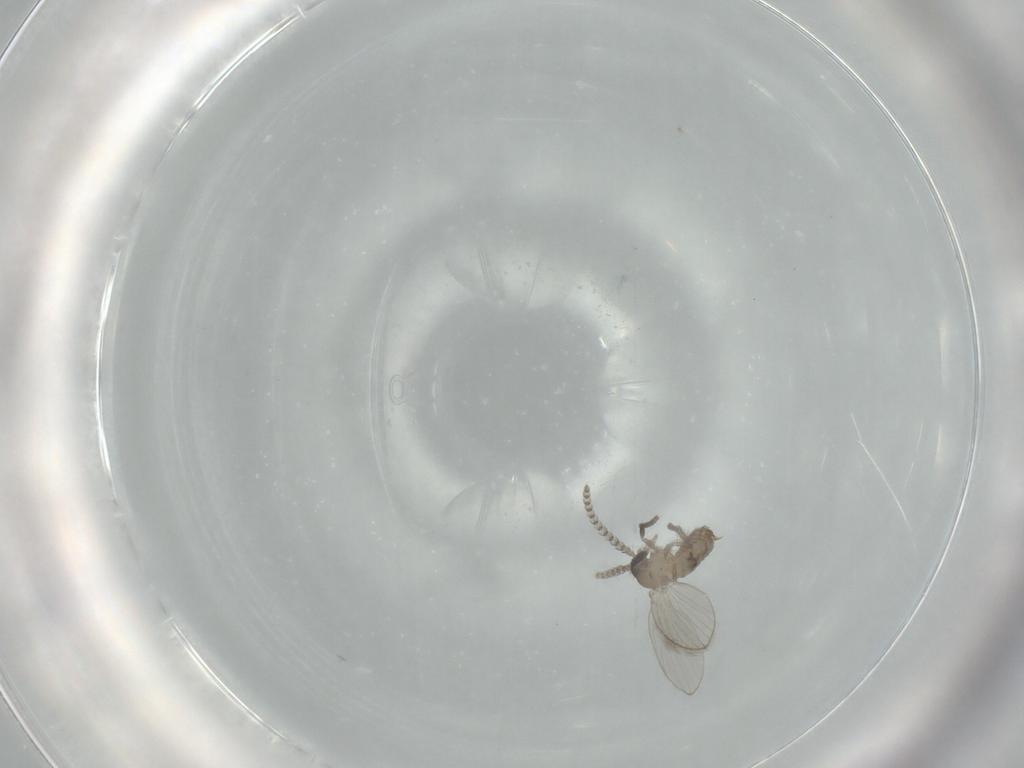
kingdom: Animalia
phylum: Arthropoda
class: Insecta
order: Diptera
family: Psychodidae
